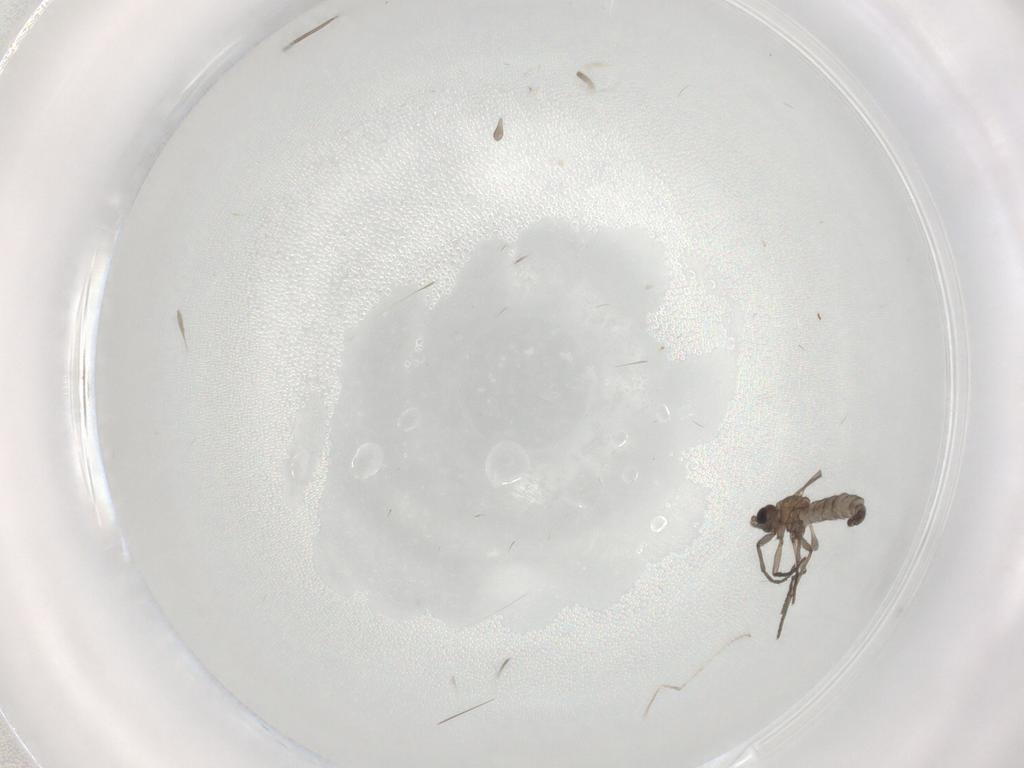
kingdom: Animalia
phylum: Arthropoda
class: Insecta
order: Diptera
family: Sciaridae
